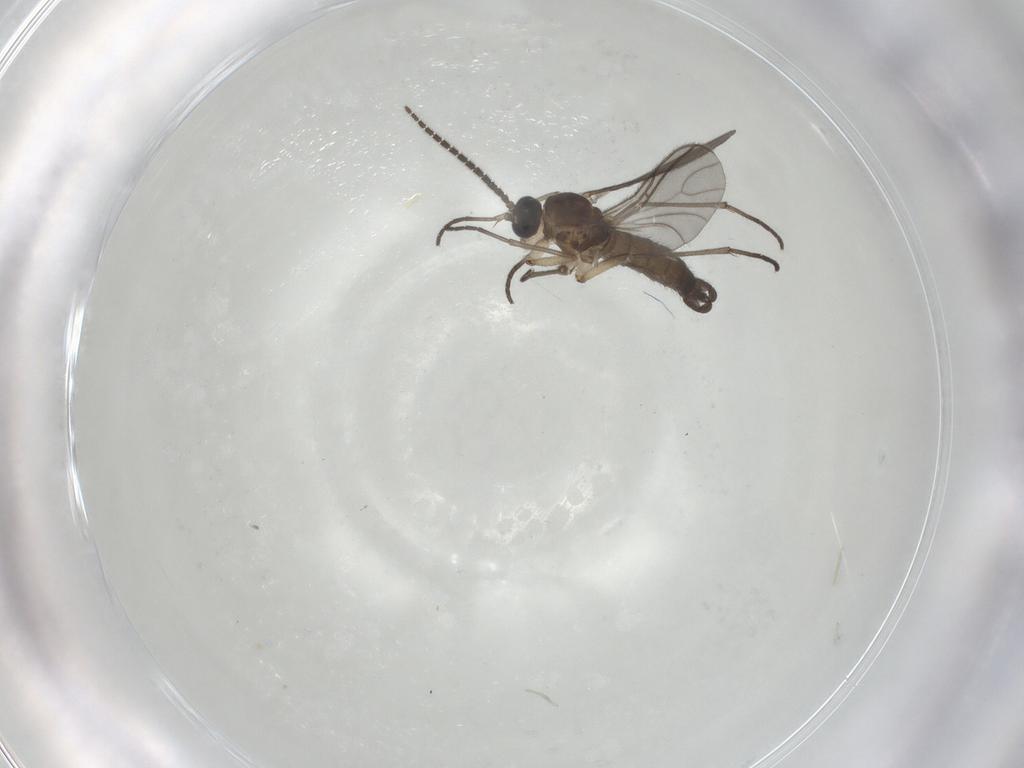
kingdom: Animalia
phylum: Arthropoda
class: Insecta
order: Diptera
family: Sciaridae
